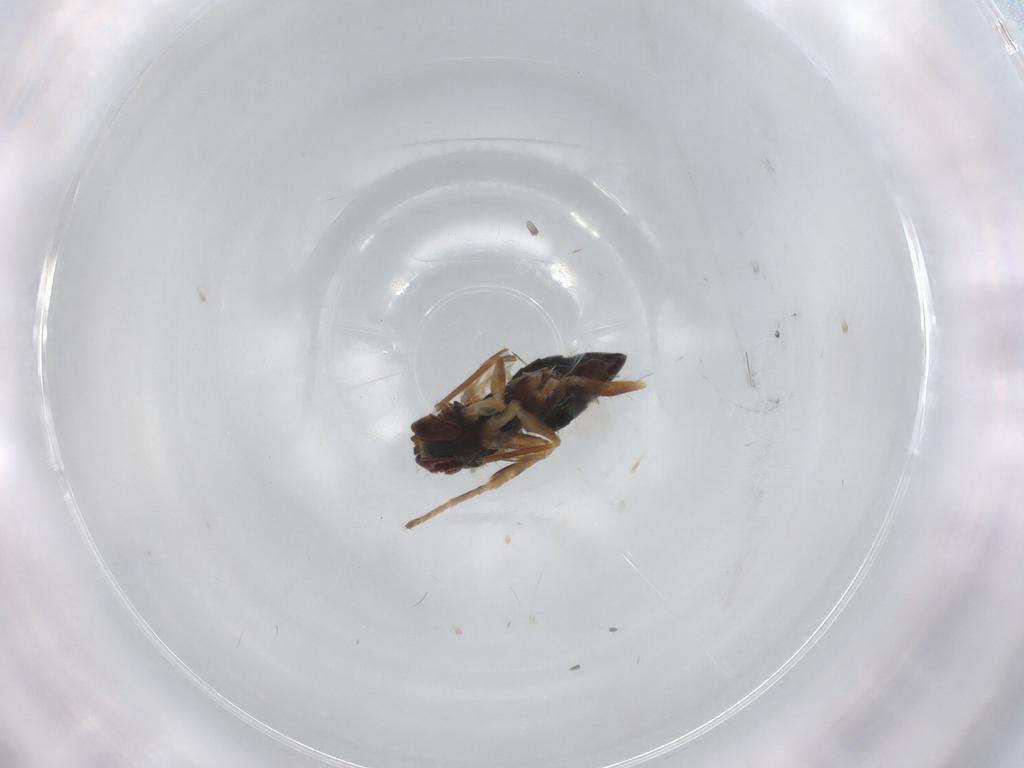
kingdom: Animalia
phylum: Arthropoda
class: Insecta
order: Diptera
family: Dolichopodidae
